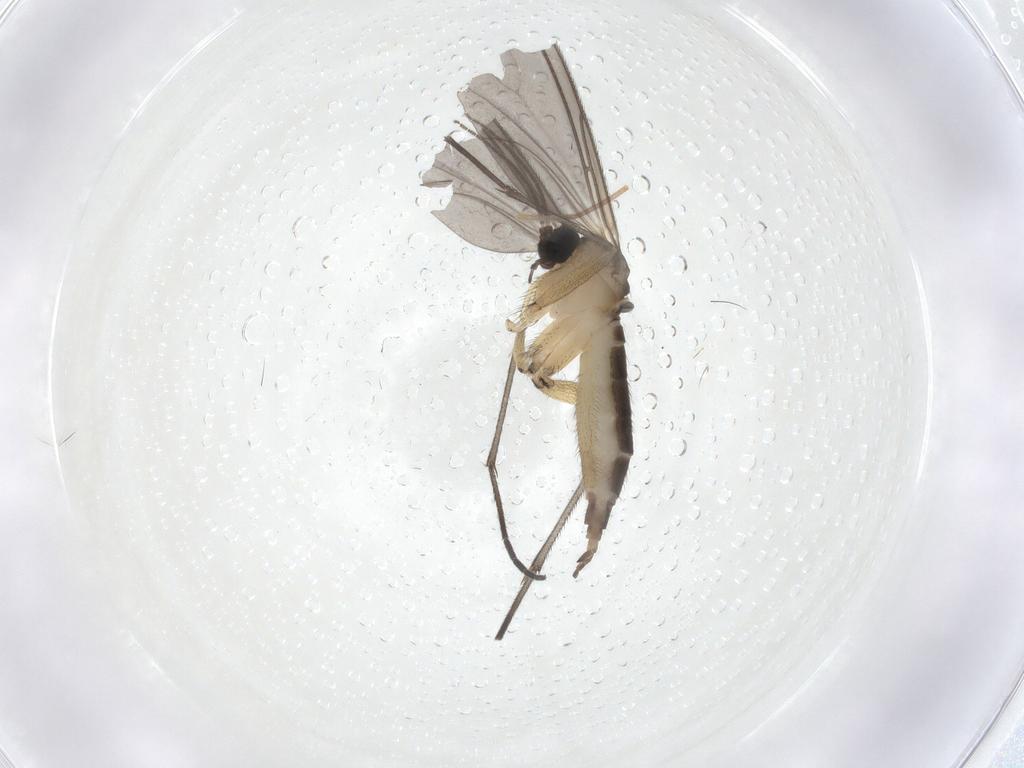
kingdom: Animalia
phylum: Arthropoda
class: Insecta
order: Diptera
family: Sciaridae
